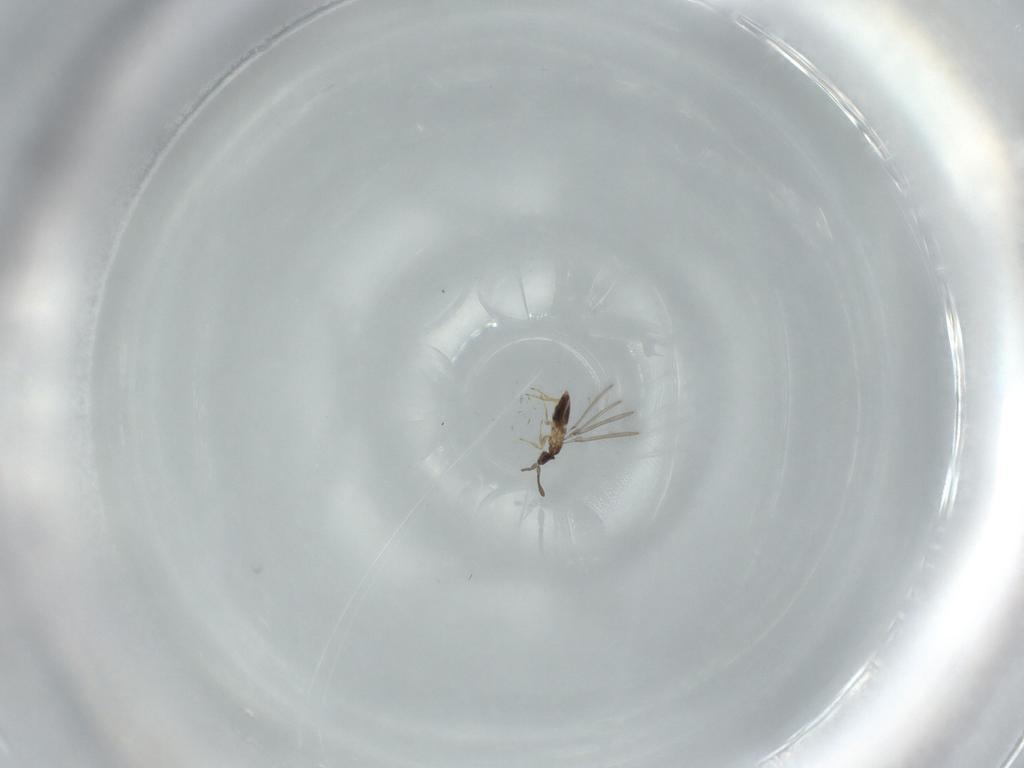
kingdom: Animalia
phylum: Arthropoda
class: Insecta
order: Hymenoptera
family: Mymaridae
